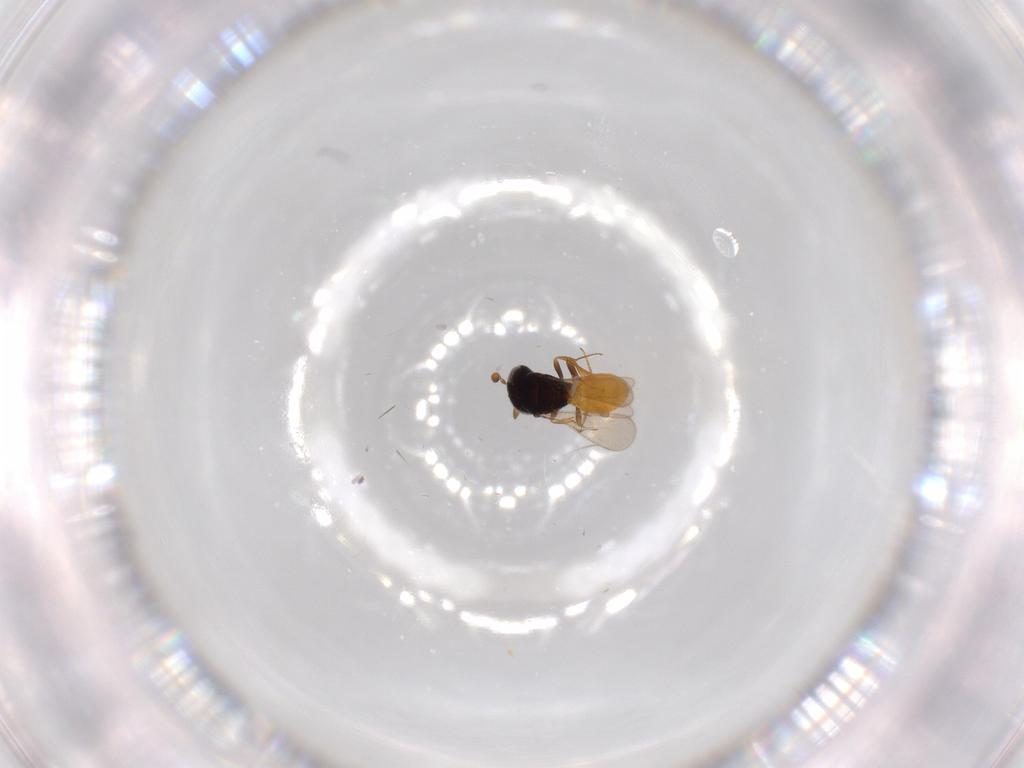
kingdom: Animalia
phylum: Arthropoda
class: Insecta
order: Hymenoptera
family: Scelionidae
